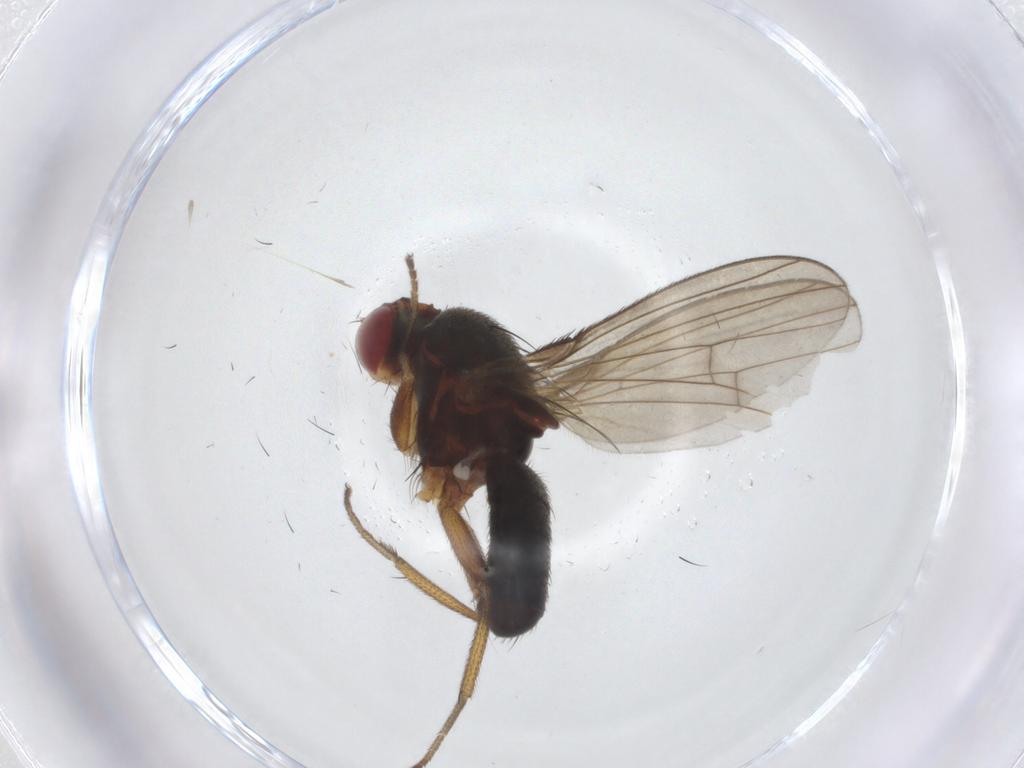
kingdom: Animalia
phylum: Arthropoda
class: Insecta
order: Diptera
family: Diastatidae
